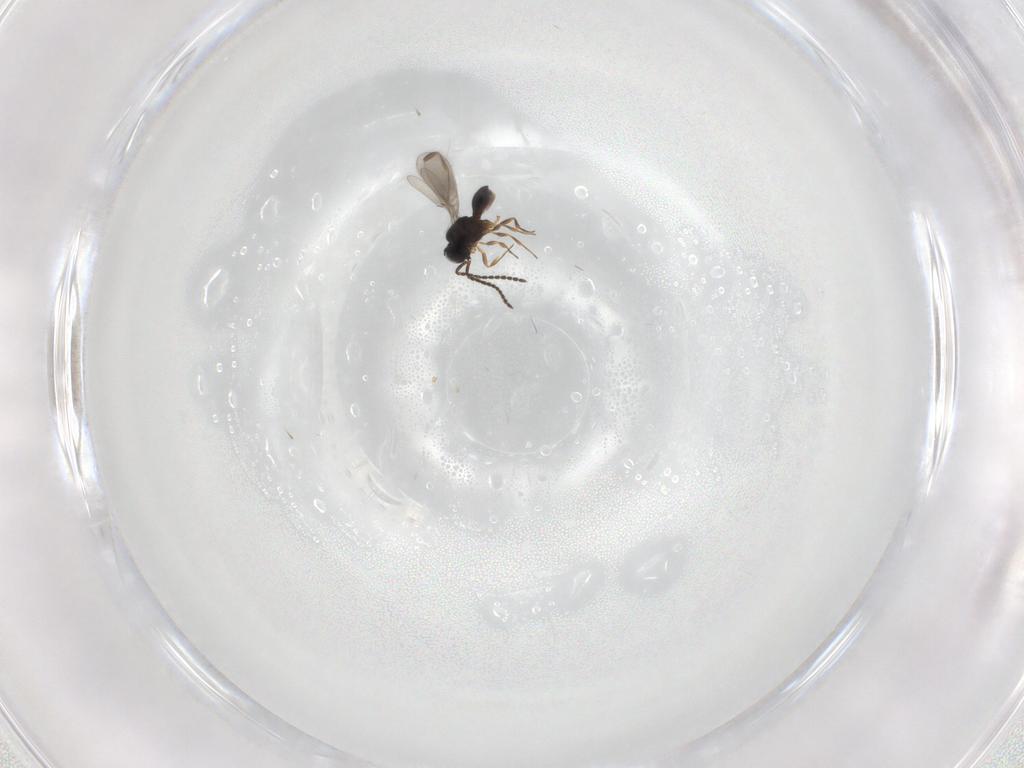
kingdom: Animalia
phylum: Arthropoda
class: Insecta
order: Hymenoptera
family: Scelionidae
